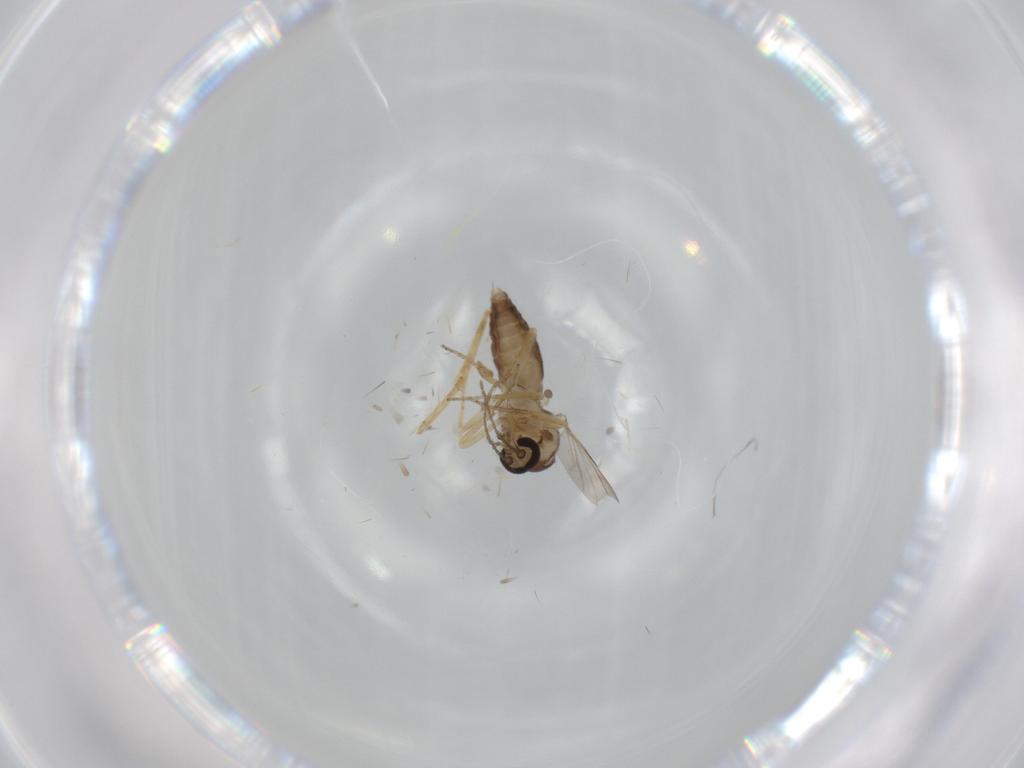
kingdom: Animalia
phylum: Arthropoda
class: Insecta
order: Diptera
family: Ceratopogonidae
